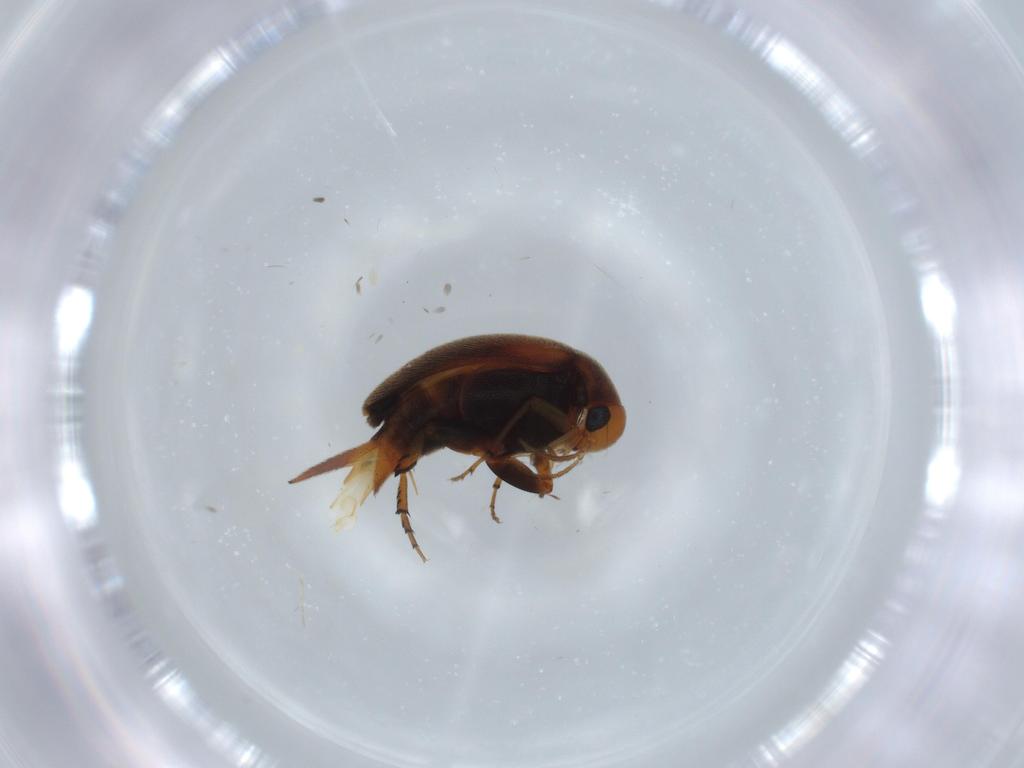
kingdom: Animalia
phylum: Arthropoda
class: Insecta
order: Coleoptera
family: Mordellidae
